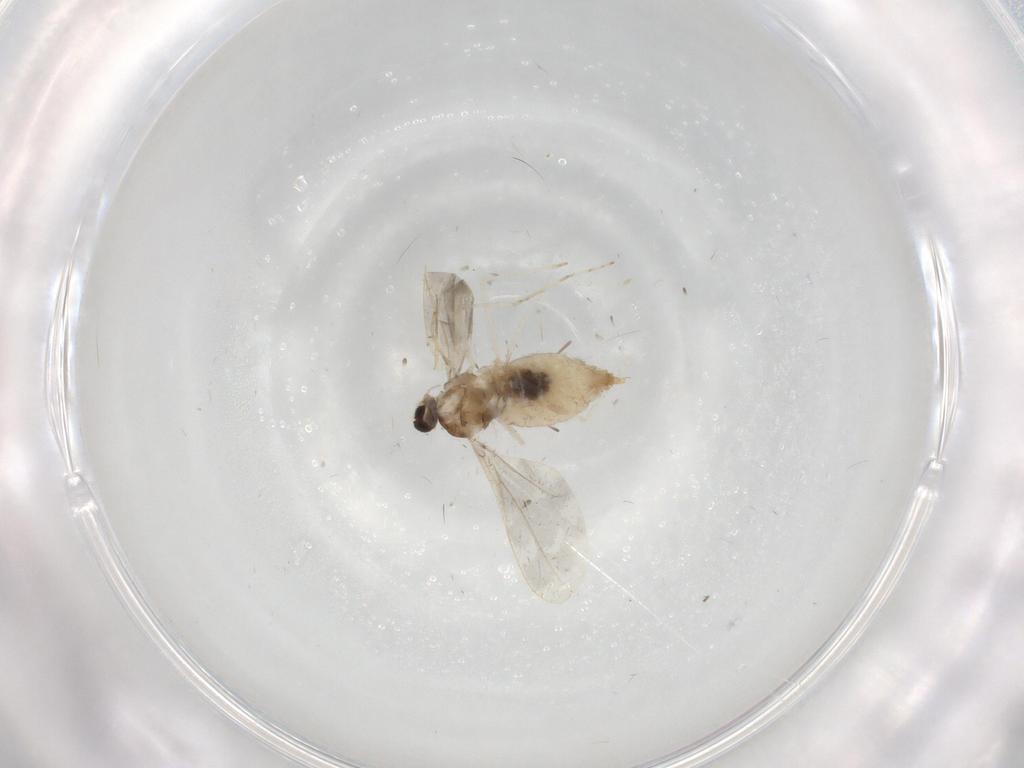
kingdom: Animalia
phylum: Arthropoda
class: Insecta
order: Diptera
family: Cecidomyiidae
